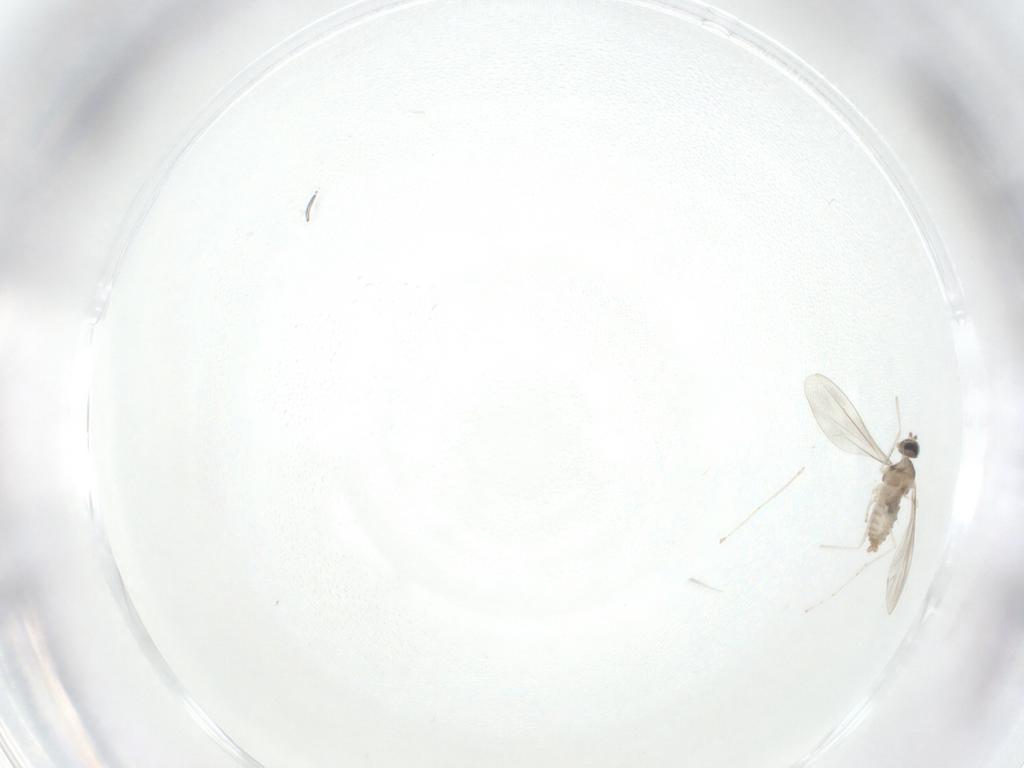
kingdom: Animalia
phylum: Arthropoda
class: Insecta
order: Diptera
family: Cecidomyiidae
